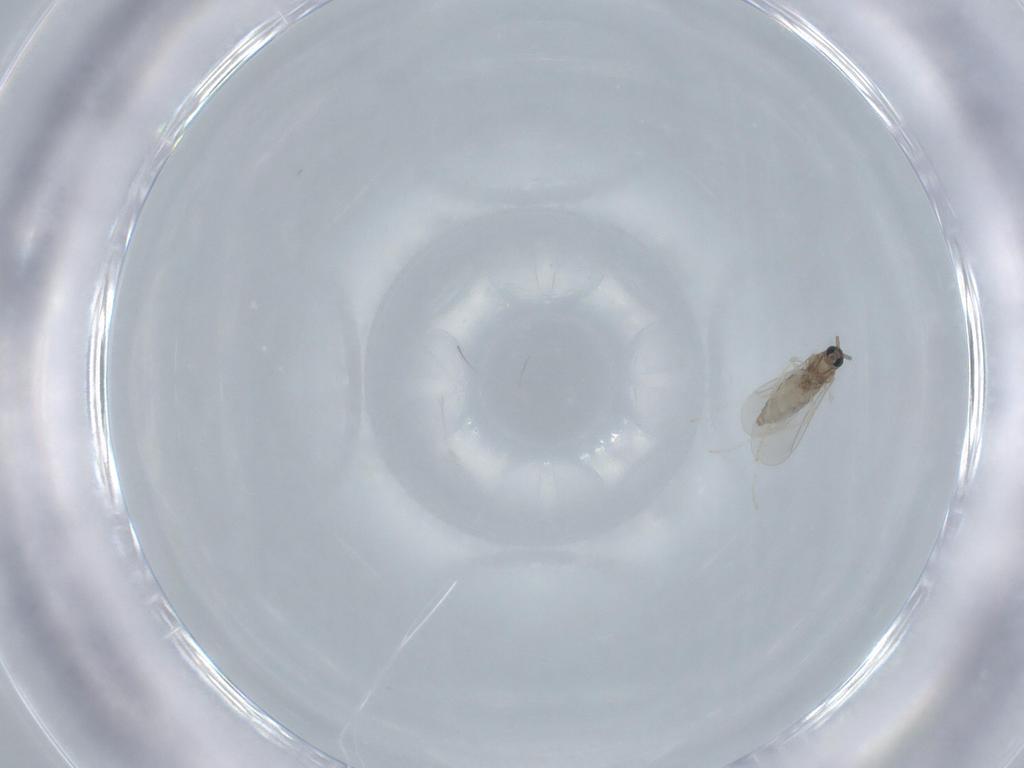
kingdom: Animalia
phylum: Arthropoda
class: Insecta
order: Diptera
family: Cecidomyiidae
